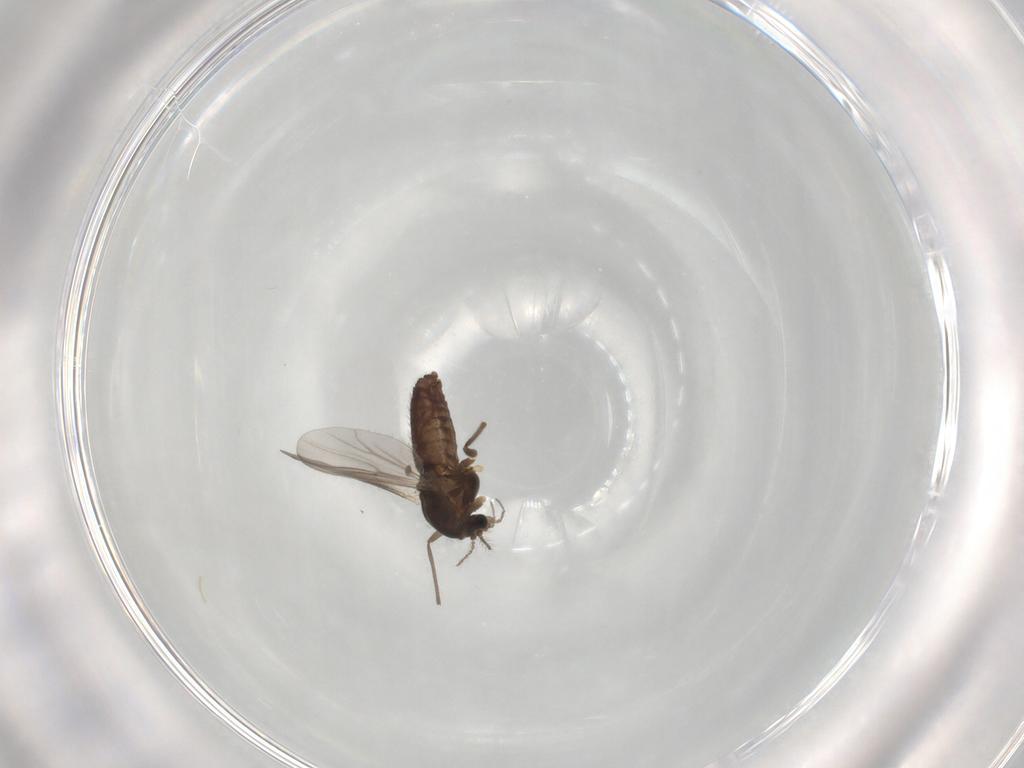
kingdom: Animalia
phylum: Arthropoda
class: Insecta
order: Diptera
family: Chironomidae
